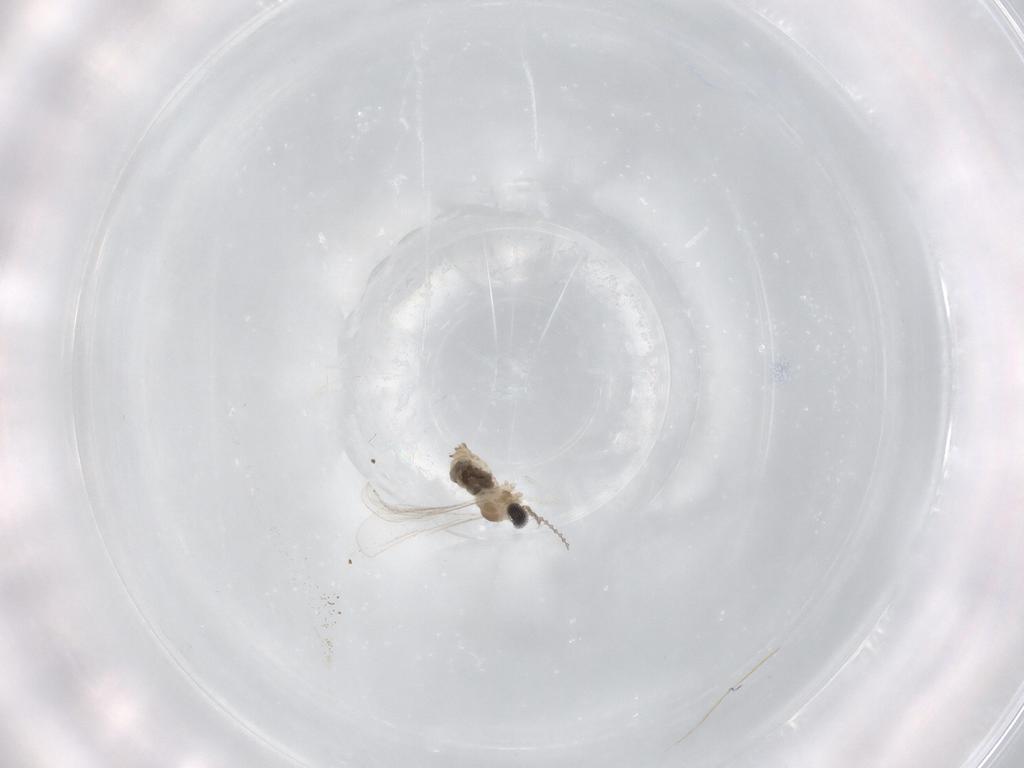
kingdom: Animalia
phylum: Arthropoda
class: Insecta
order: Diptera
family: Cecidomyiidae
